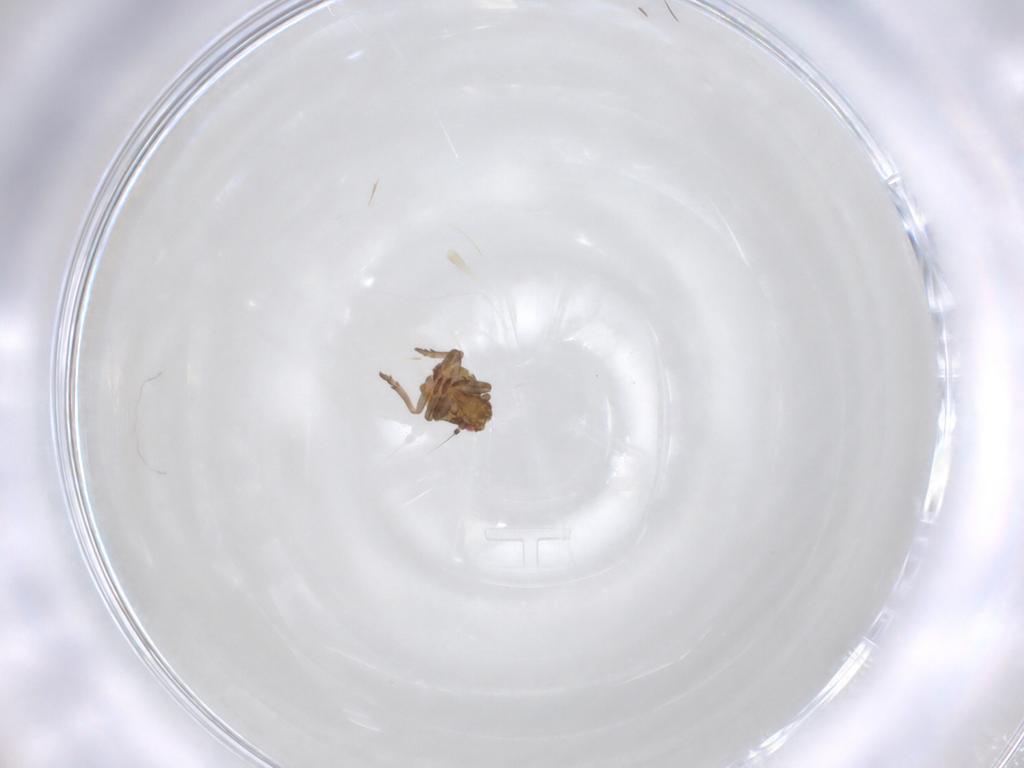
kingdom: Animalia
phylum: Arthropoda
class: Insecta
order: Hemiptera
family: Ricaniidae
